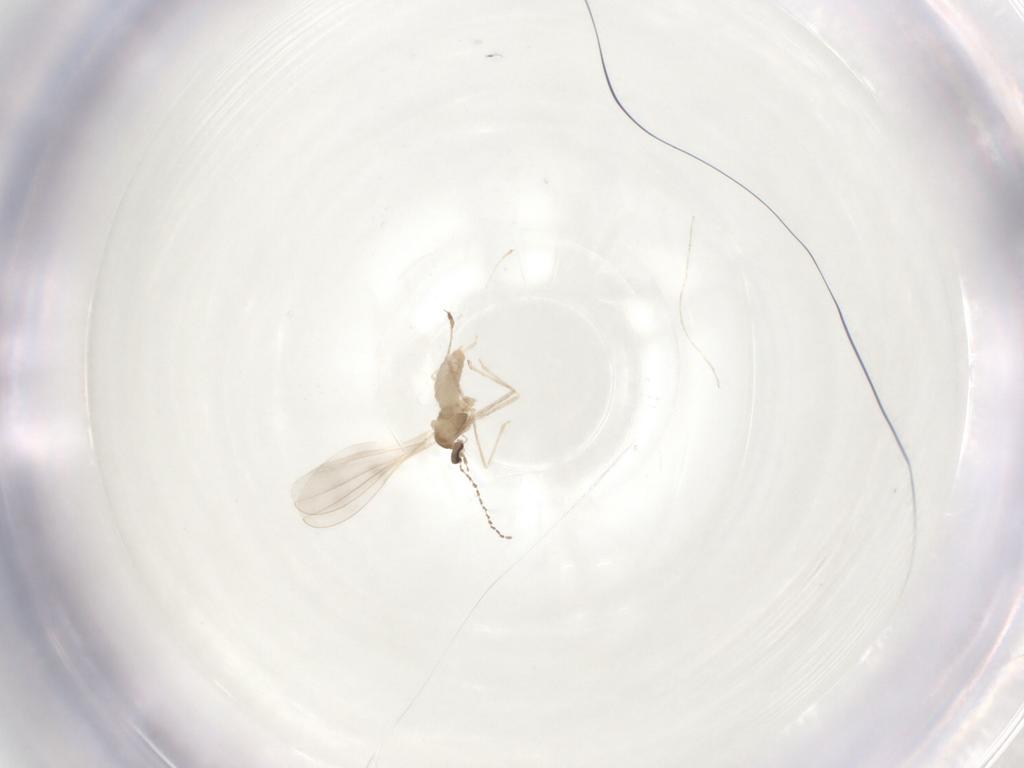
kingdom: Animalia
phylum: Arthropoda
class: Insecta
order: Diptera
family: Cecidomyiidae
